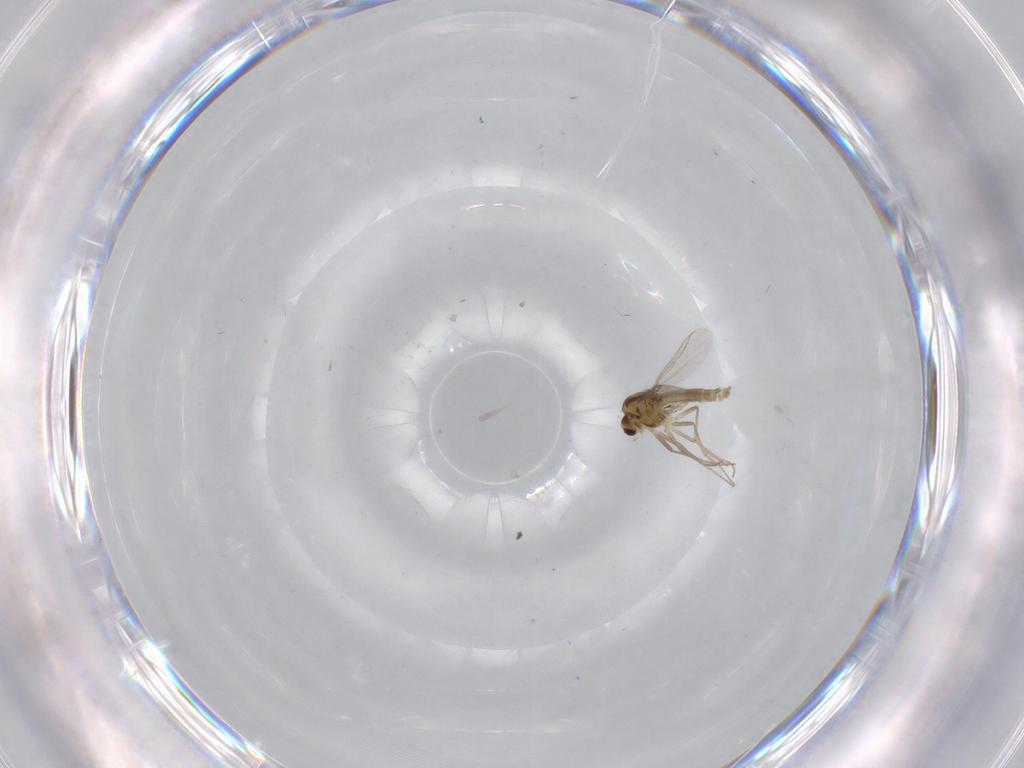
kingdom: Animalia
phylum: Arthropoda
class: Insecta
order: Diptera
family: Chironomidae
